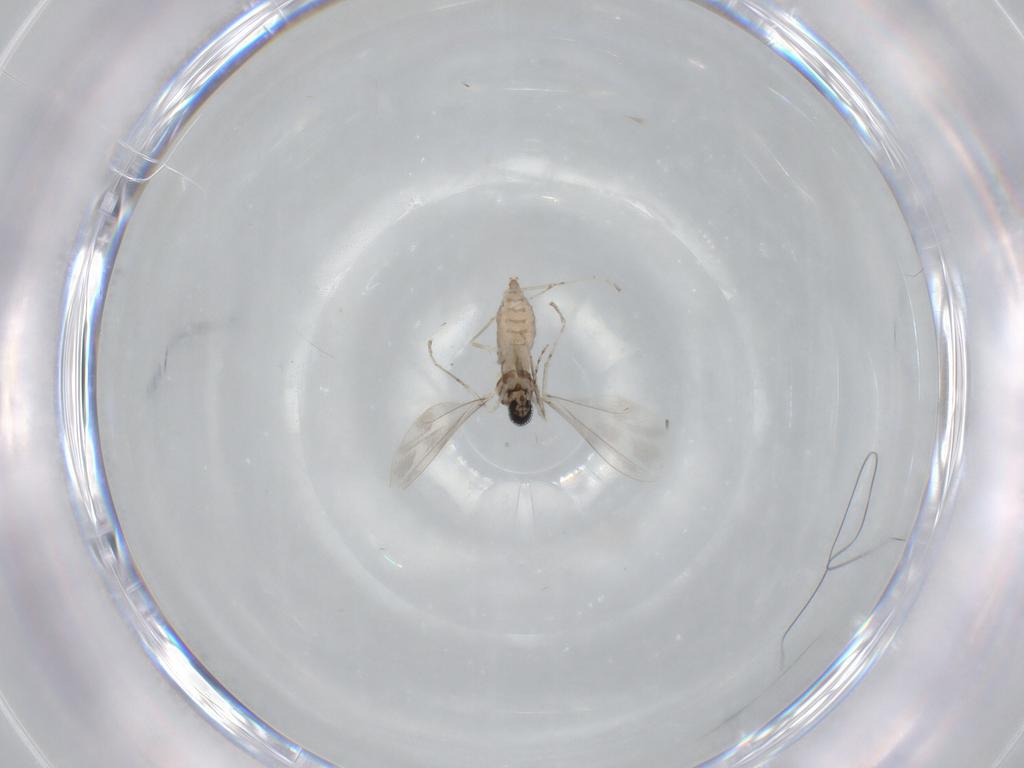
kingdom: Animalia
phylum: Arthropoda
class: Insecta
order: Diptera
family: Cecidomyiidae
